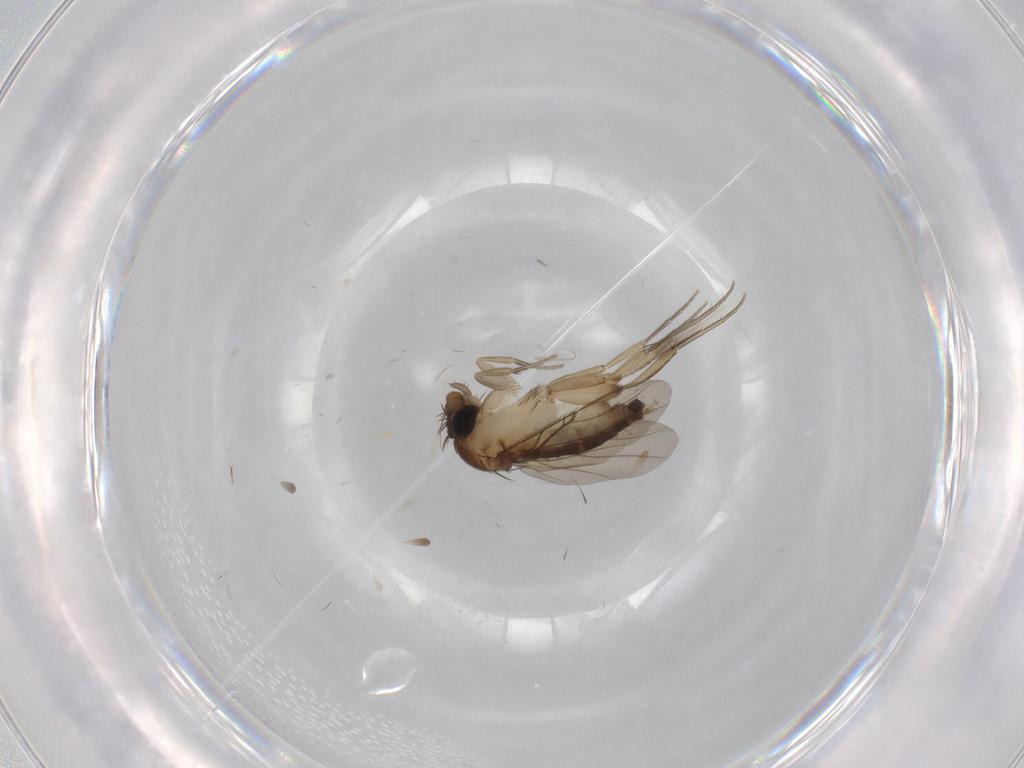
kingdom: Animalia
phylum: Arthropoda
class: Insecta
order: Diptera
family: Phoridae
